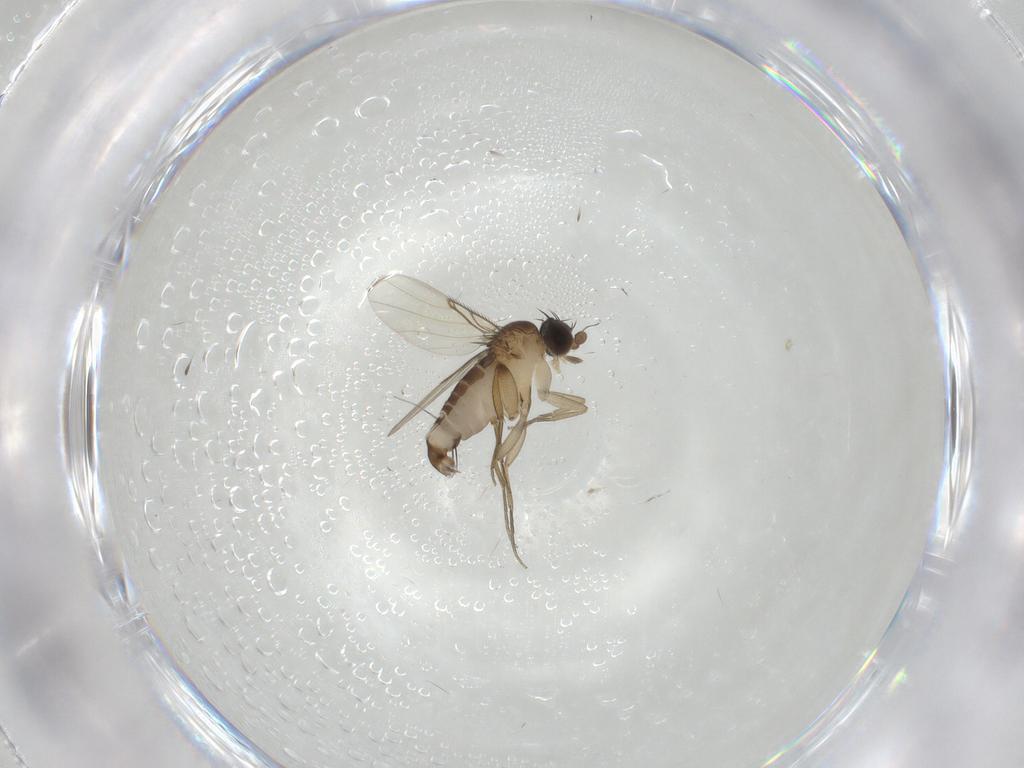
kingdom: Animalia
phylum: Arthropoda
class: Insecta
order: Diptera
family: Phoridae
